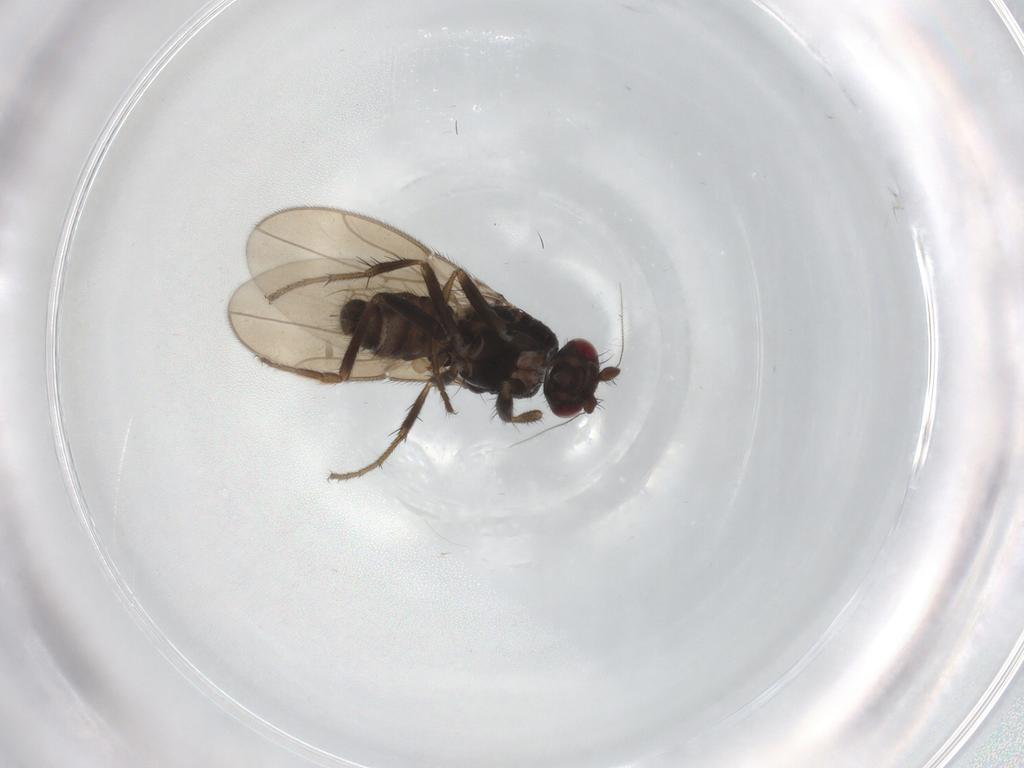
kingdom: Animalia
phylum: Arthropoda
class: Insecta
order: Diptera
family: Sphaeroceridae
